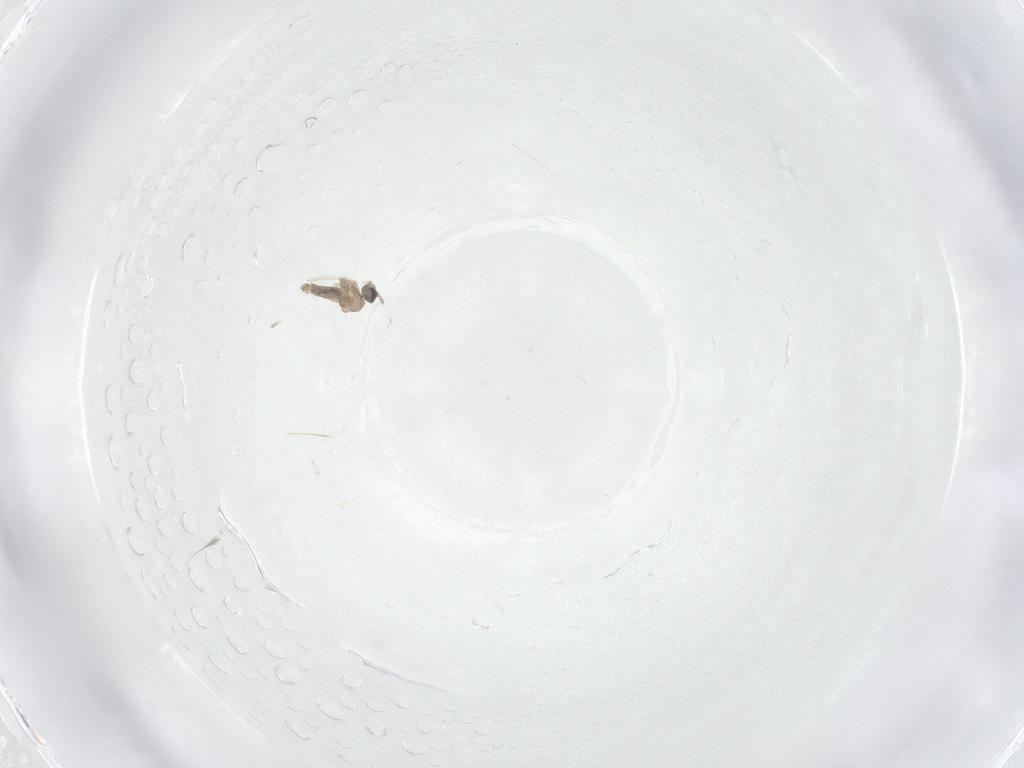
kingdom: Animalia
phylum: Arthropoda
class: Insecta
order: Diptera
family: Cecidomyiidae
